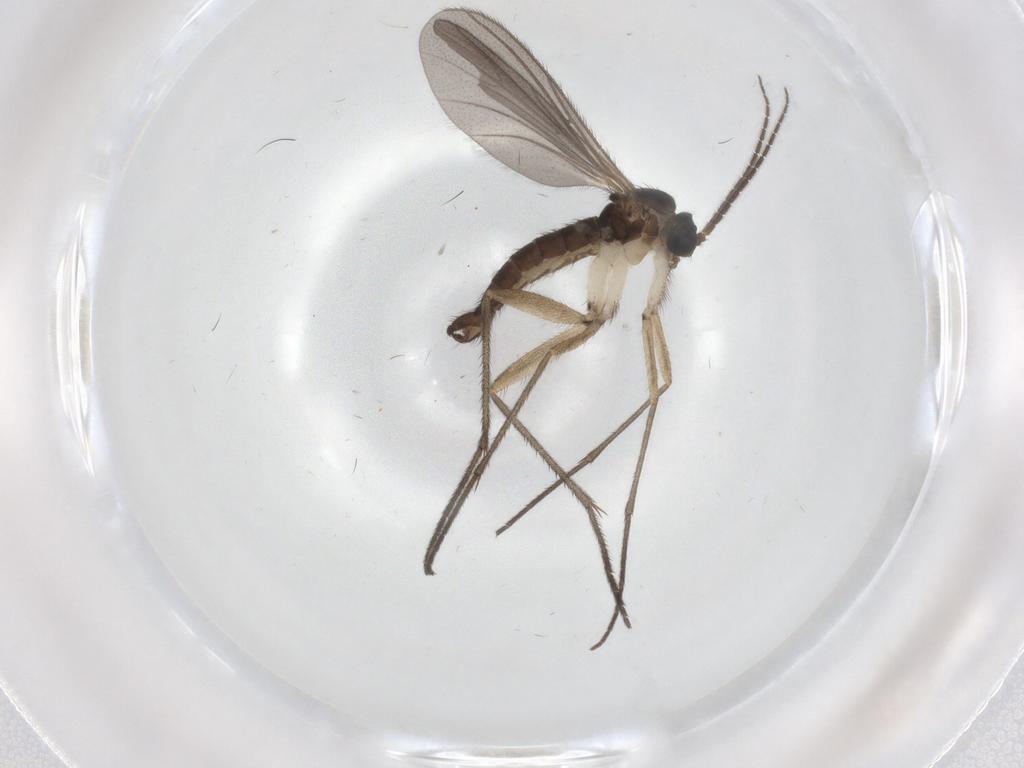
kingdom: Animalia
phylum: Arthropoda
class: Insecta
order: Diptera
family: Sciaridae
